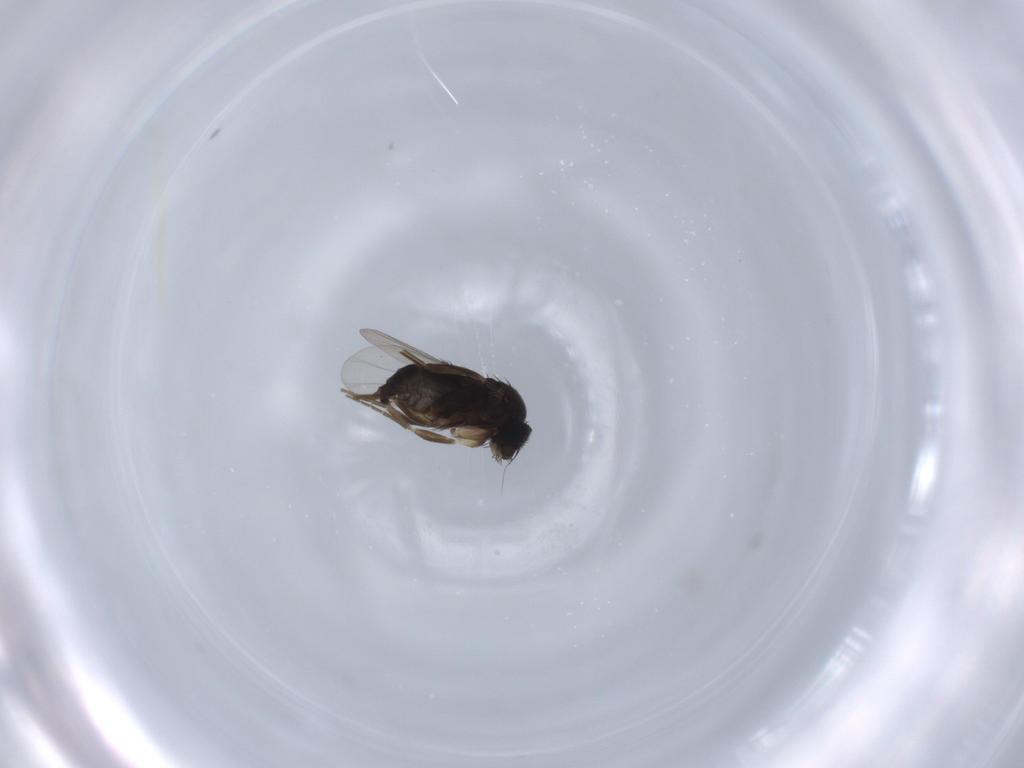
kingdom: Animalia
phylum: Arthropoda
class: Insecta
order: Diptera
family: Phoridae
